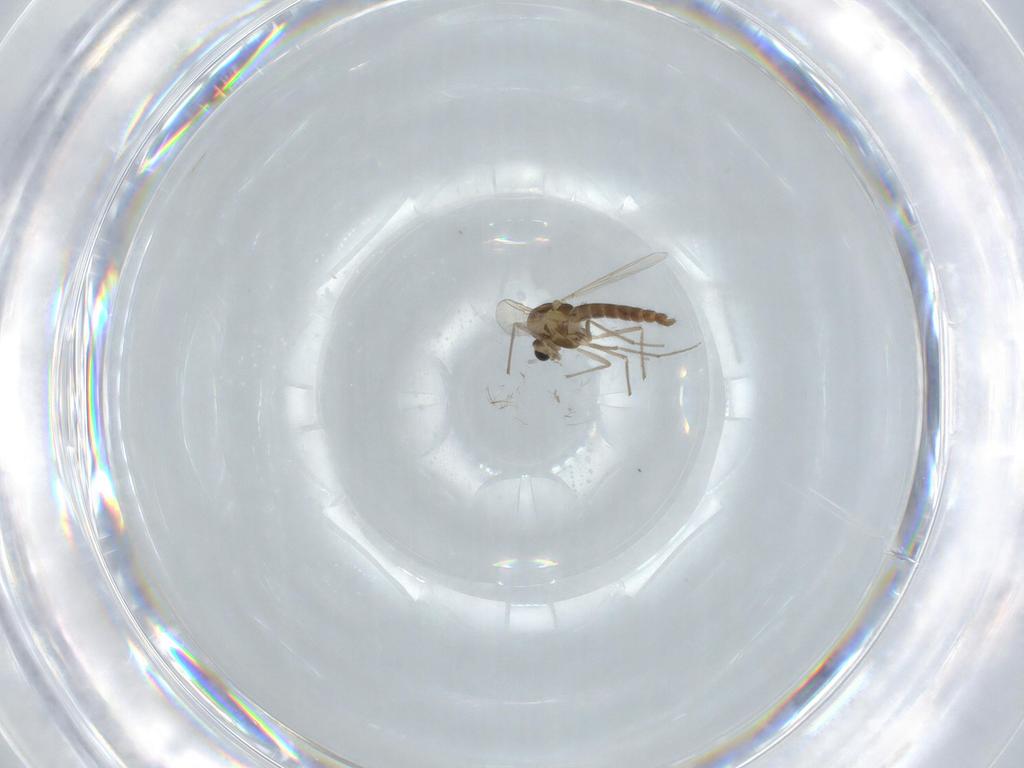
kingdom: Animalia
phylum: Arthropoda
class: Insecta
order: Diptera
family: Chironomidae
